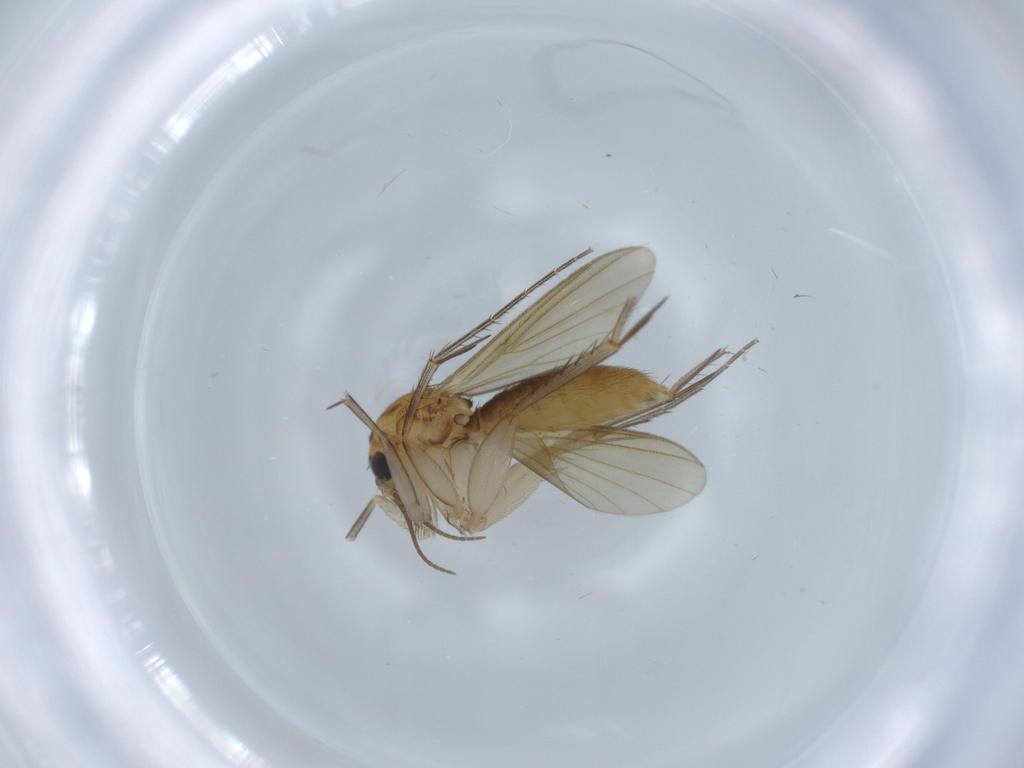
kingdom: Animalia
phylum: Arthropoda
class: Insecta
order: Diptera
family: Mycetophilidae
